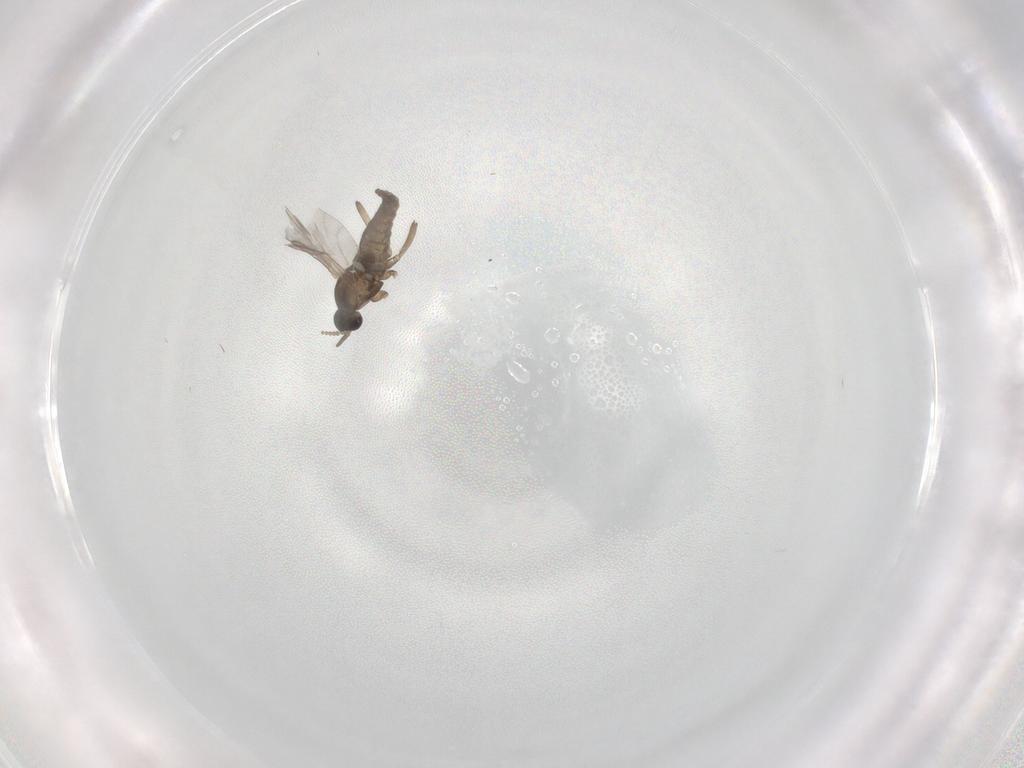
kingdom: Animalia
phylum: Arthropoda
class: Insecta
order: Diptera
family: Cecidomyiidae
